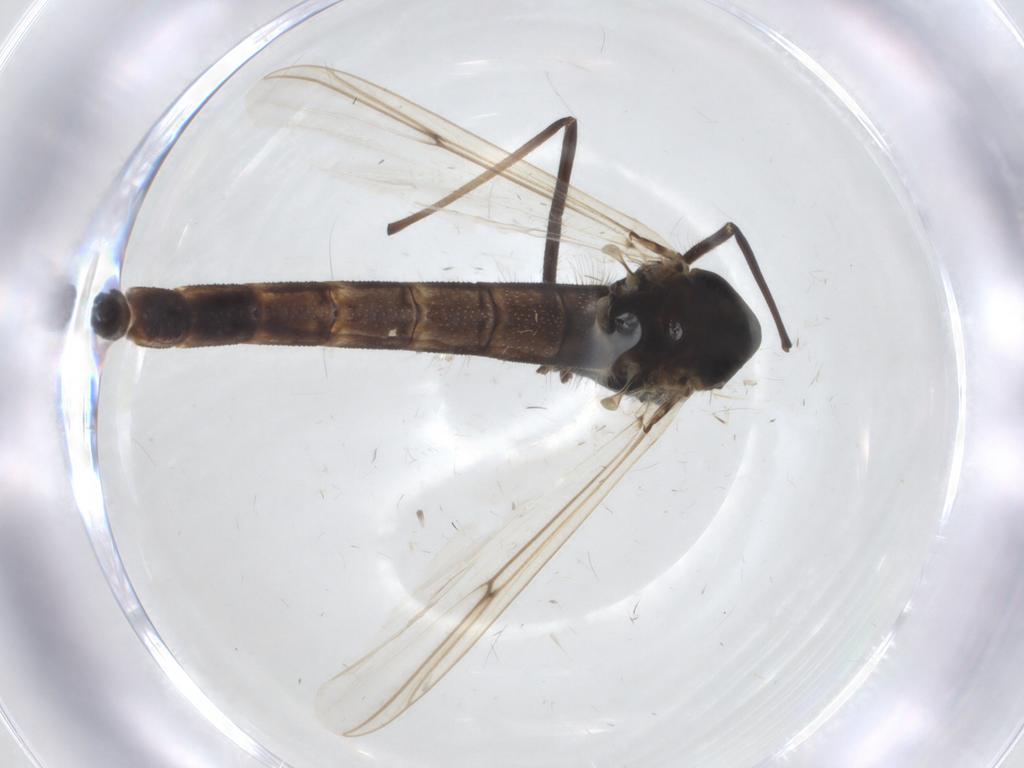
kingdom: Animalia
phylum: Arthropoda
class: Insecta
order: Diptera
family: Chironomidae
